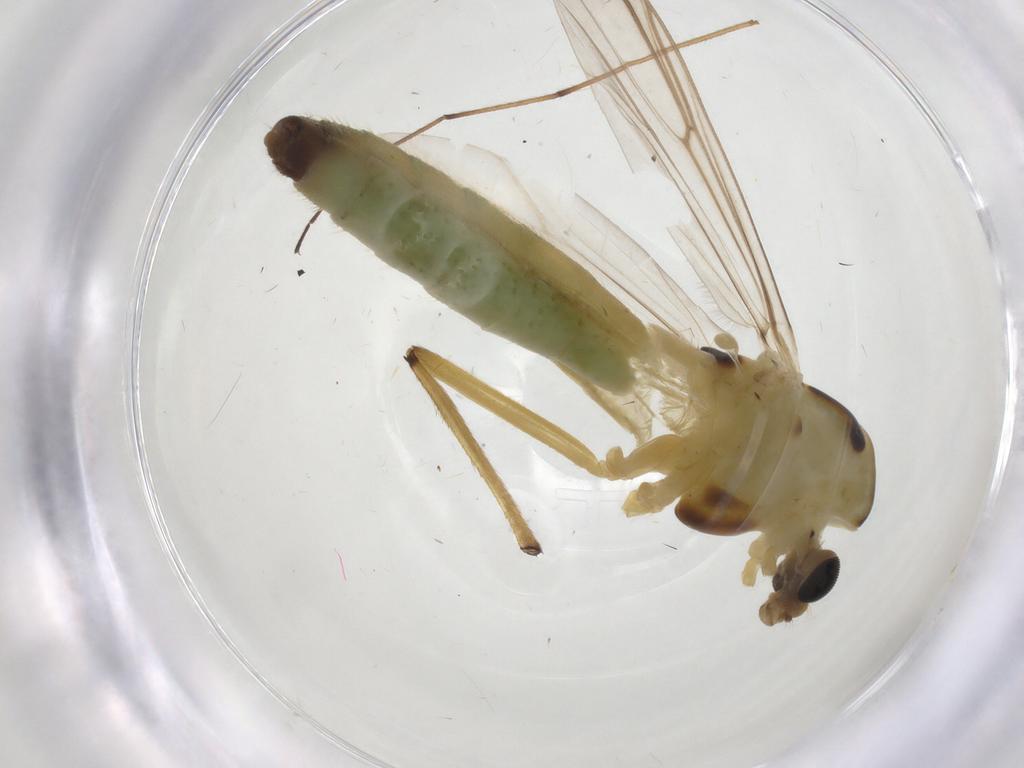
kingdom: Animalia
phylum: Arthropoda
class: Insecta
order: Diptera
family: Chironomidae
